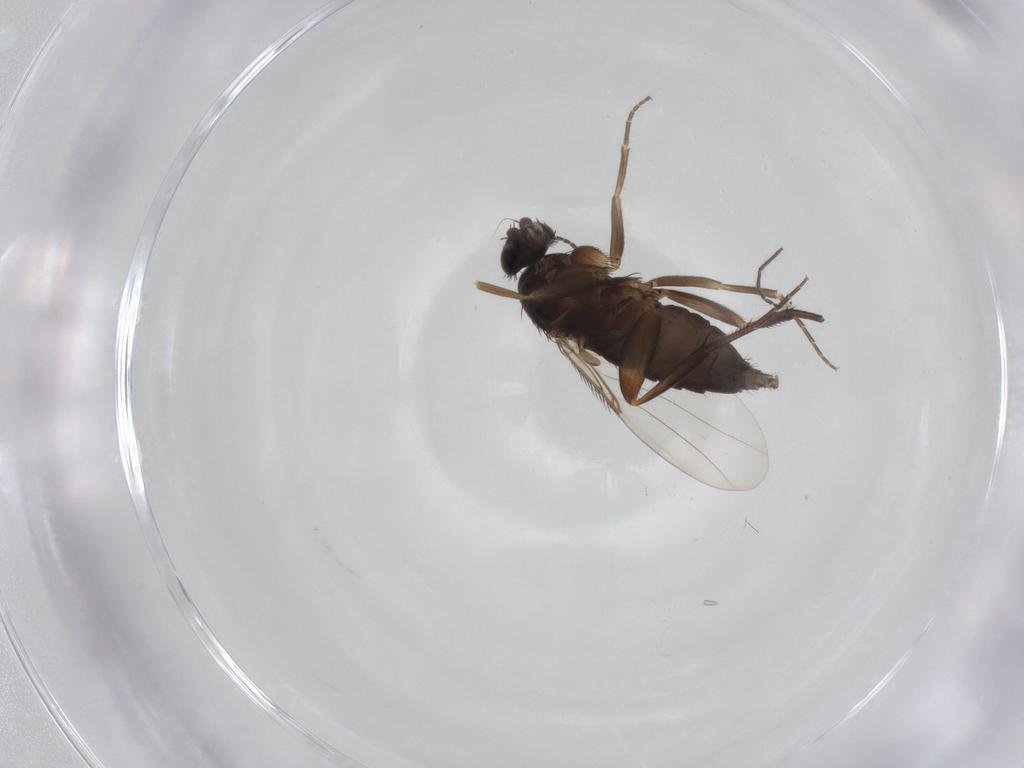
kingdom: Animalia
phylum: Arthropoda
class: Insecta
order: Diptera
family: Phoridae
